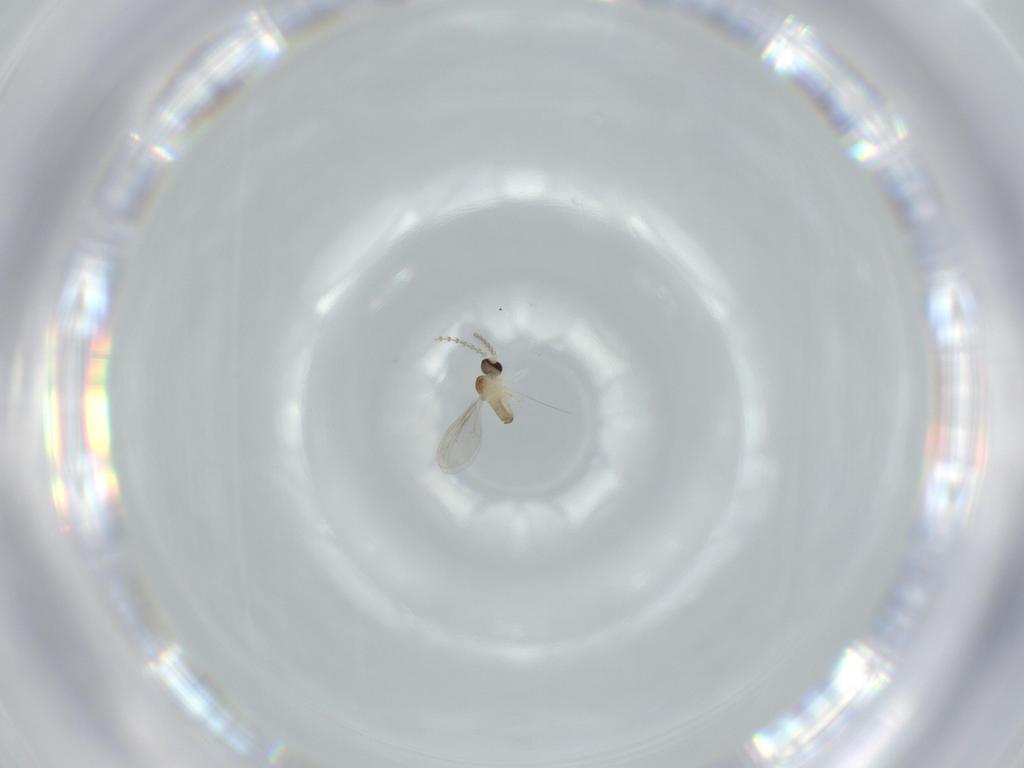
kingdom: Animalia
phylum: Arthropoda
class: Insecta
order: Diptera
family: Cecidomyiidae
